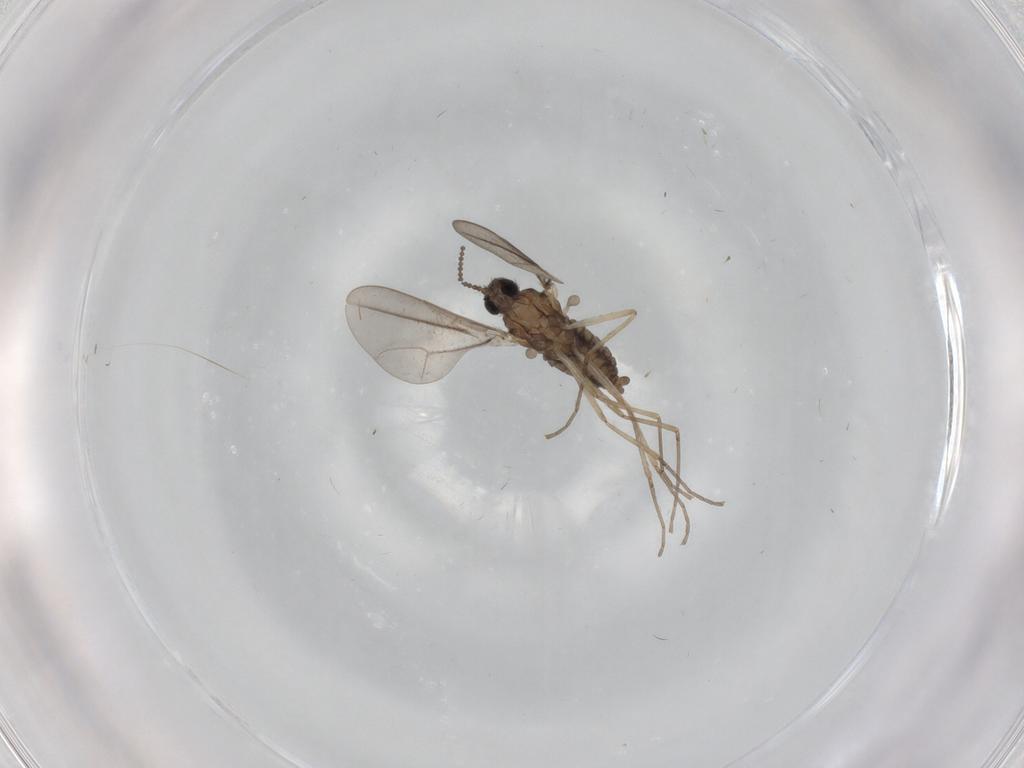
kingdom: Animalia
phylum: Arthropoda
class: Insecta
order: Diptera
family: Cecidomyiidae
